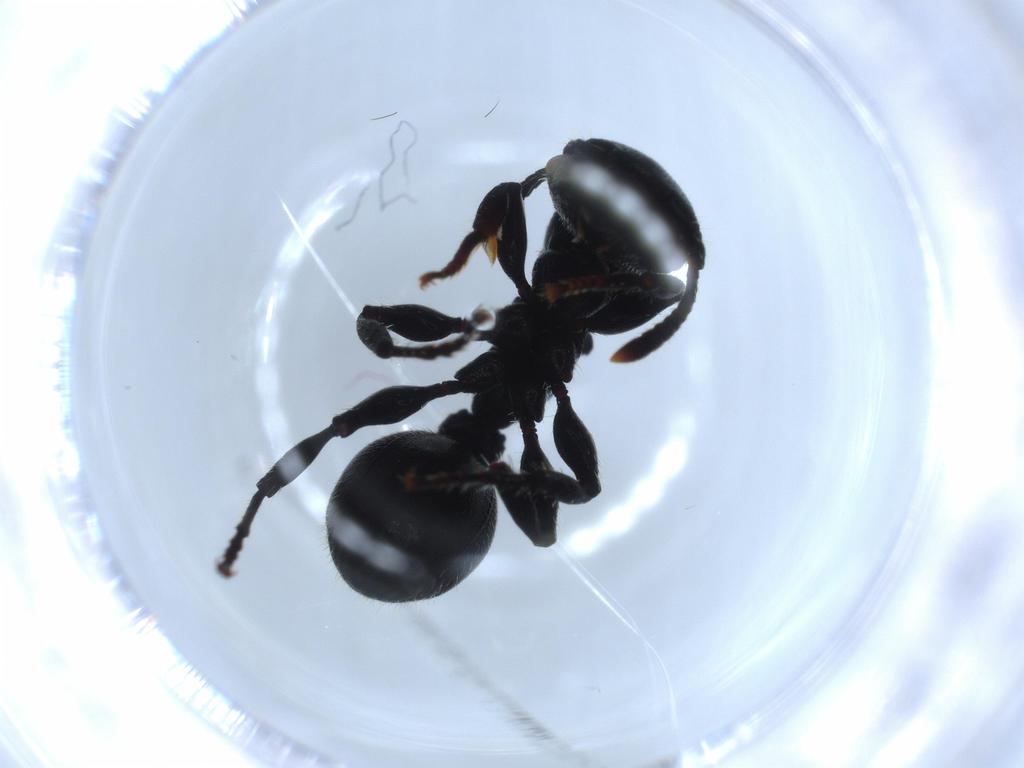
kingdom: Animalia
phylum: Arthropoda
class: Insecta
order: Hymenoptera
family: Formicidae
